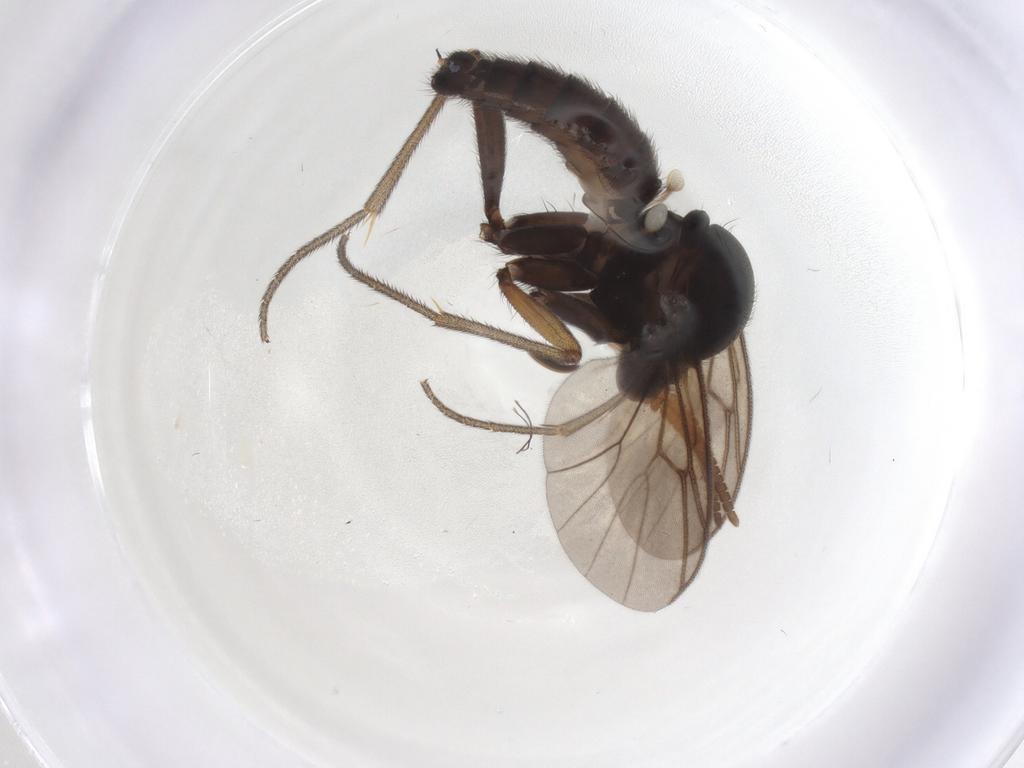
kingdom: Animalia
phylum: Arthropoda
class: Insecta
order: Diptera
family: Mycetophilidae
